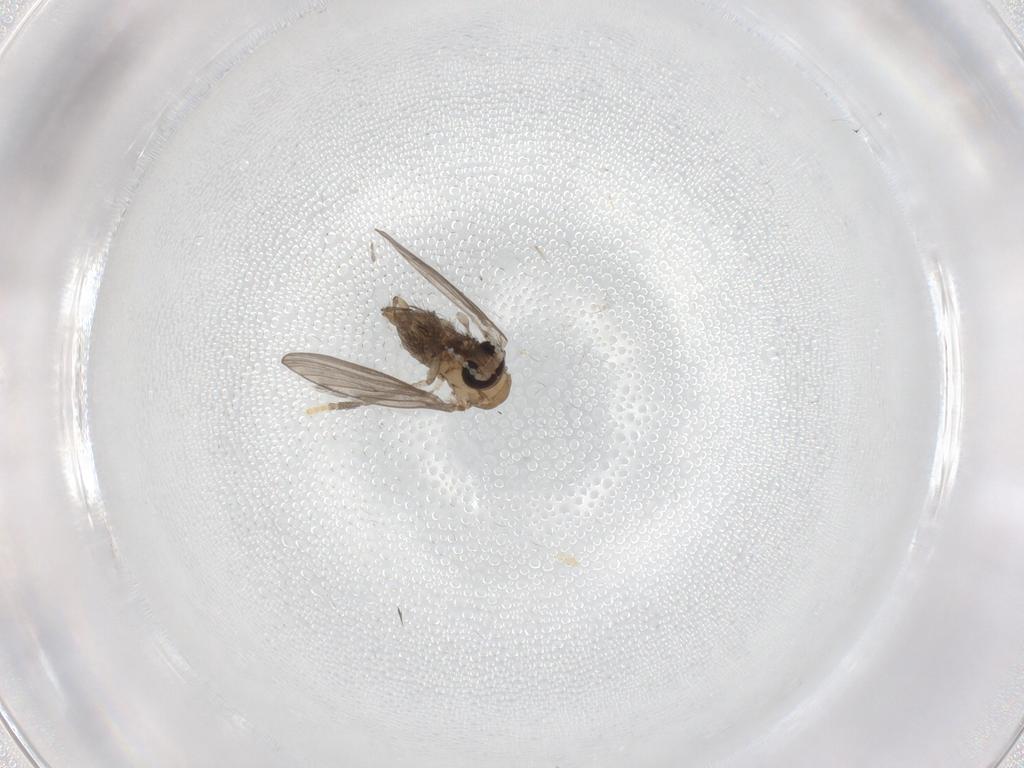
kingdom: Animalia
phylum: Arthropoda
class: Insecta
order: Diptera
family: Psychodidae
